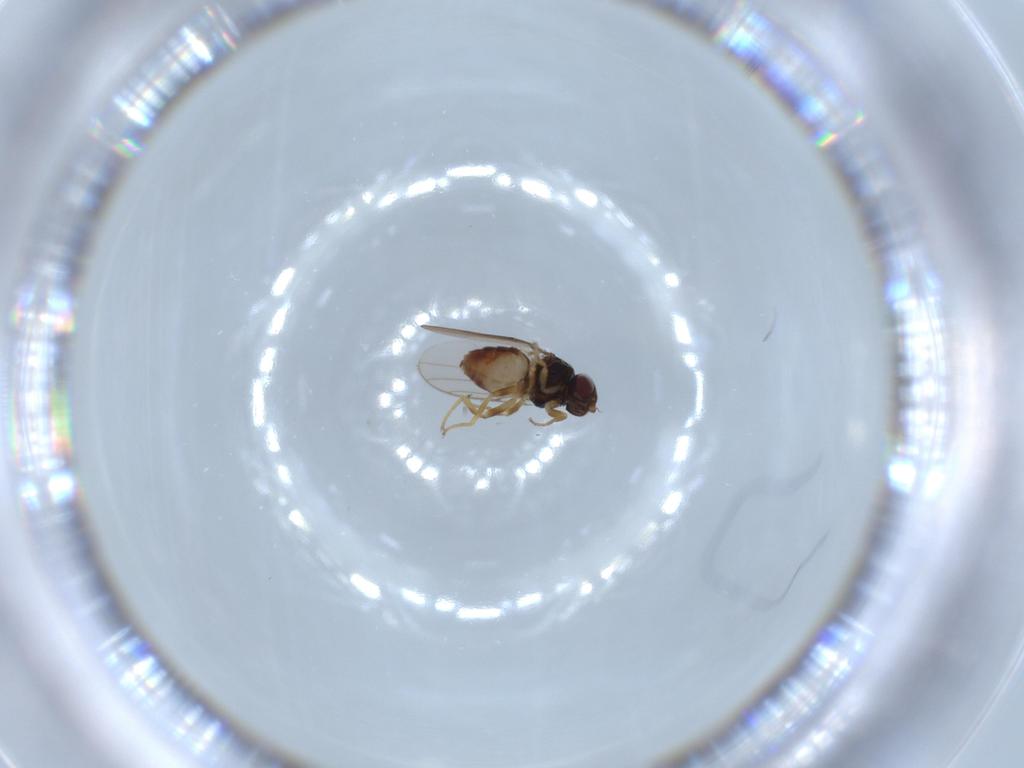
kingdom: Animalia
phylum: Arthropoda
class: Insecta
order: Diptera
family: Chloropidae
